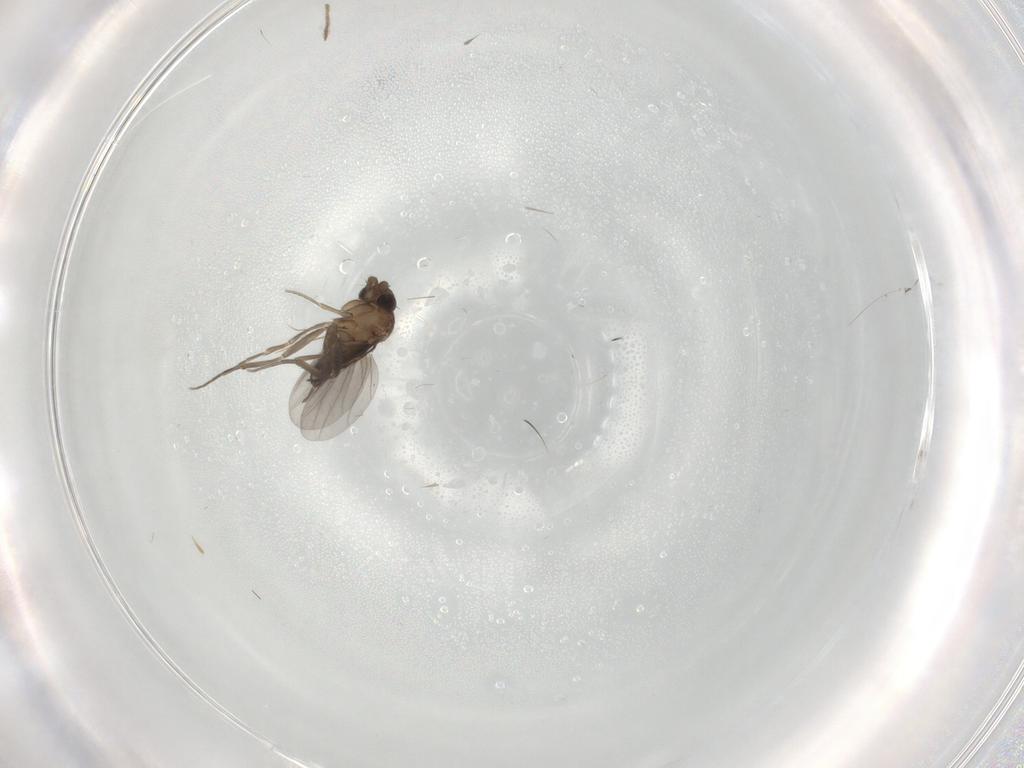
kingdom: Animalia
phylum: Arthropoda
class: Insecta
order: Diptera
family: Phoridae
